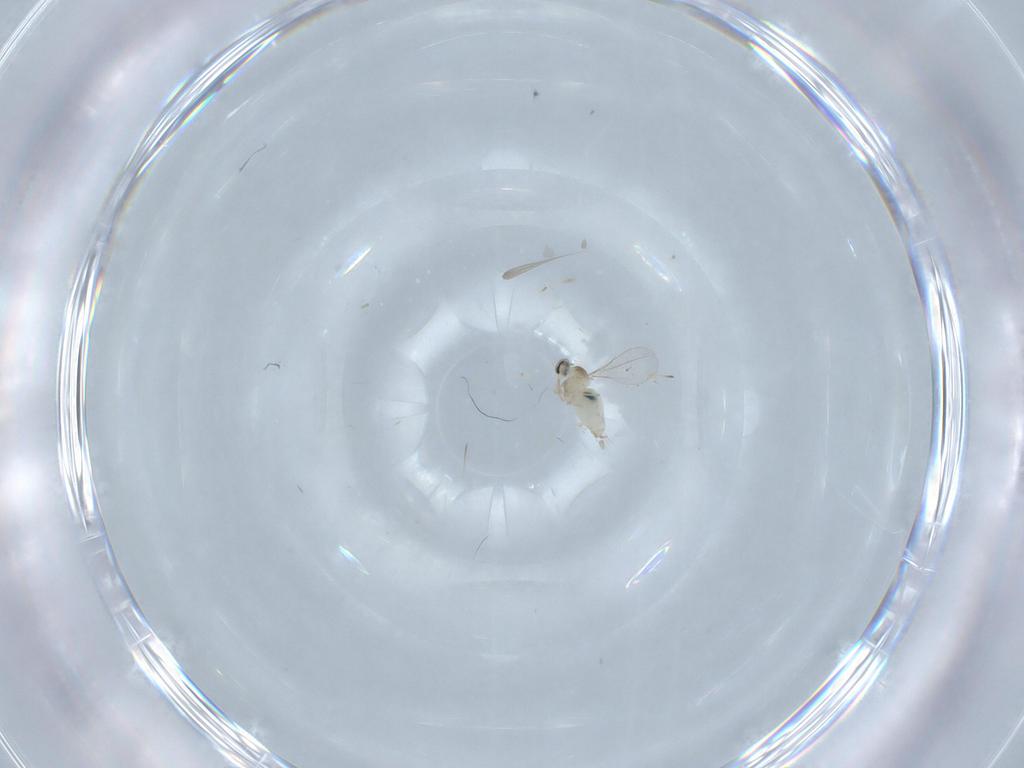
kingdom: Animalia
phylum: Arthropoda
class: Insecta
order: Diptera
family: Chironomidae
